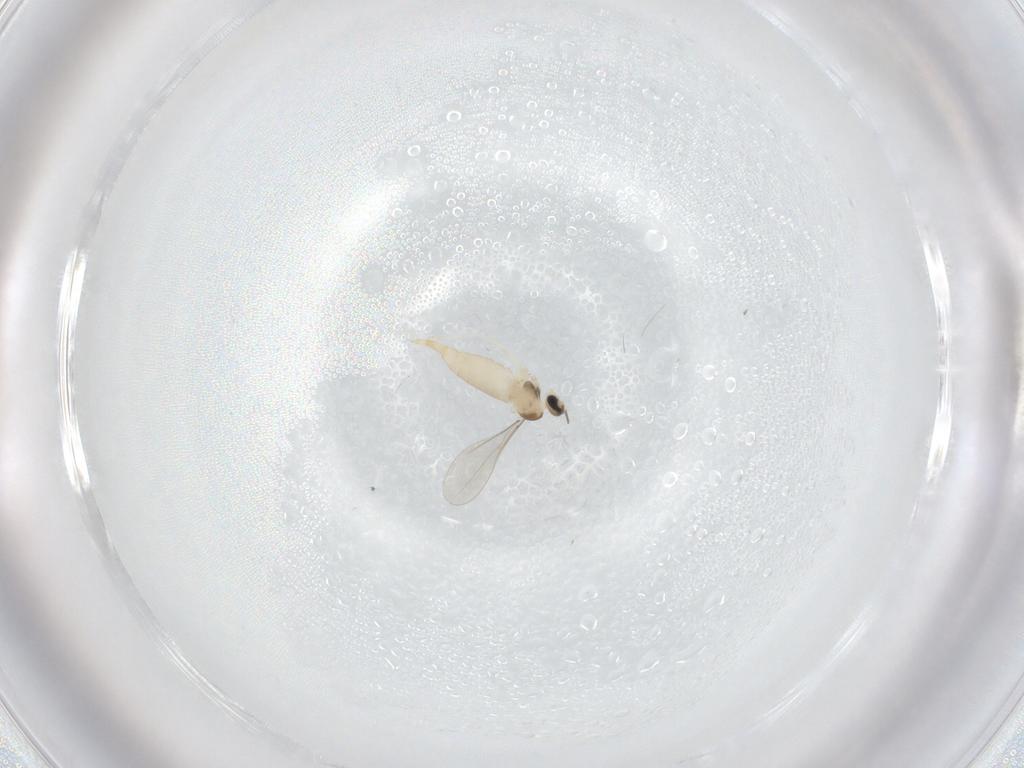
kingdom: Animalia
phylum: Arthropoda
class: Insecta
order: Diptera
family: Cecidomyiidae
